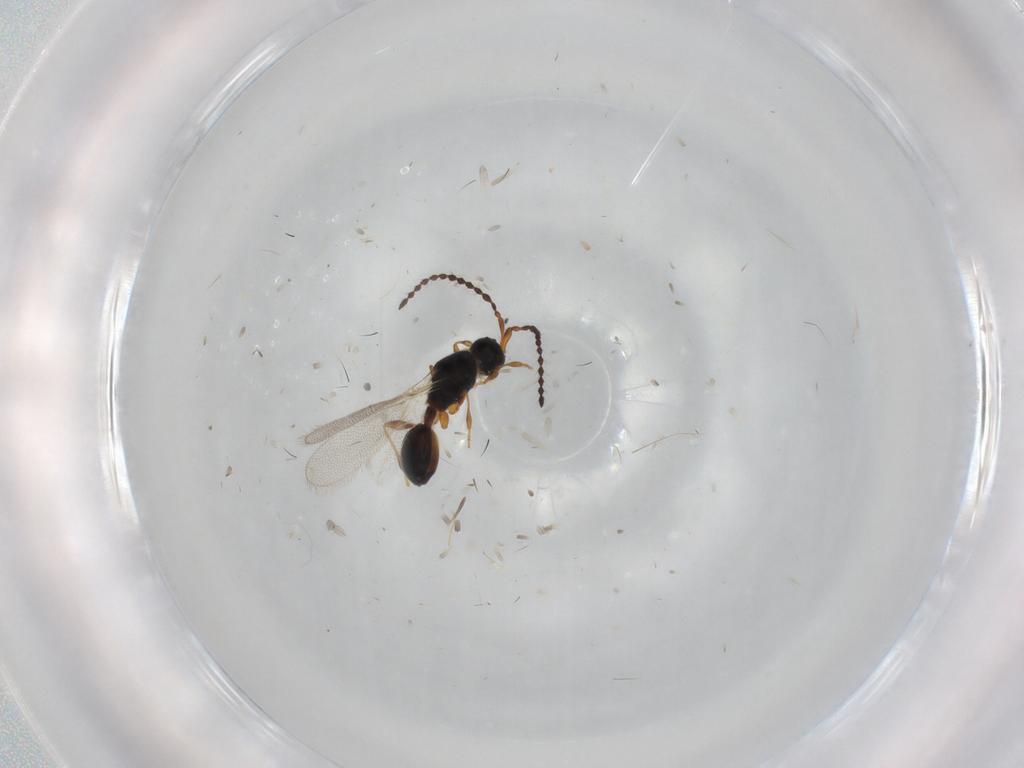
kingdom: Animalia
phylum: Arthropoda
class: Insecta
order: Hymenoptera
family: Diapriidae
